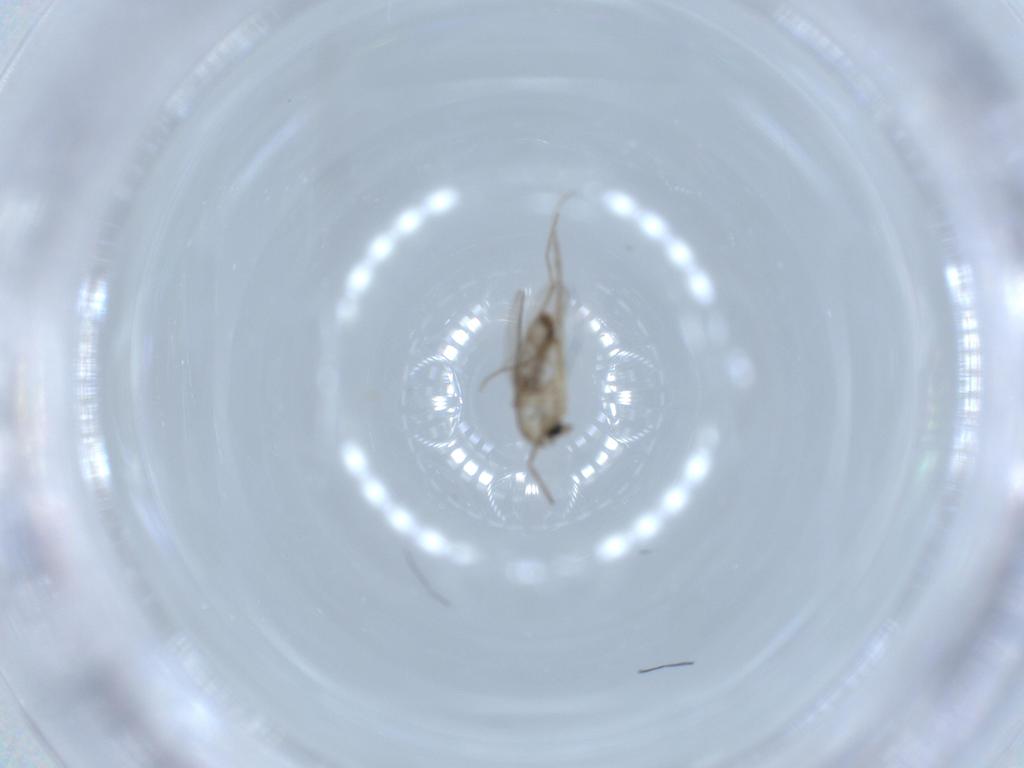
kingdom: Animalia
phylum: Arthropoda
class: Insecta
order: Diptera
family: Chironomidae
